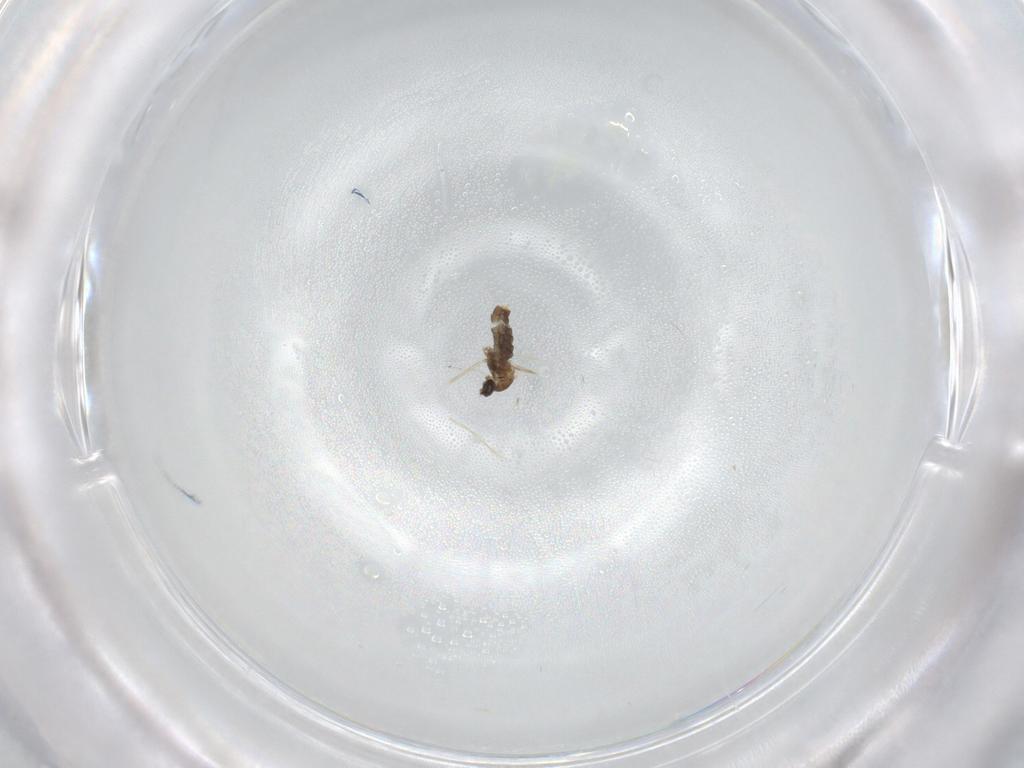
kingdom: Animalia
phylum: Arthropoda
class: Insecta
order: Diptera
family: Cecidomyiidae
